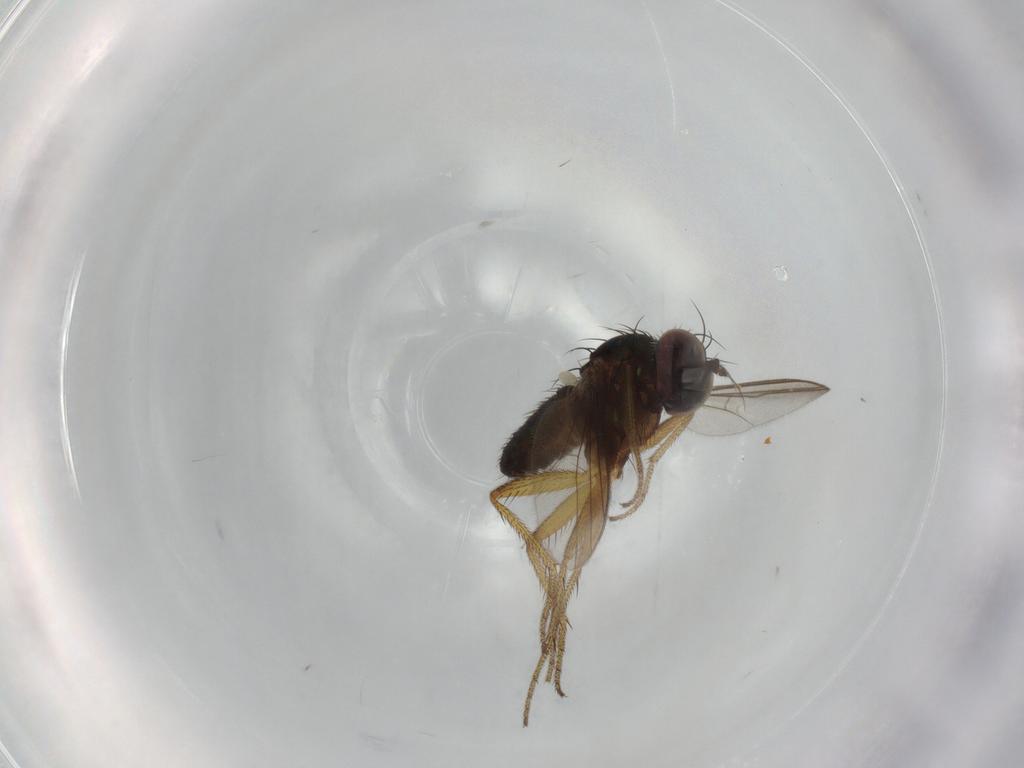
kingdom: Animalia
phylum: Arthropoda
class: Insecta
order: Diptera
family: Dolichopodidae
